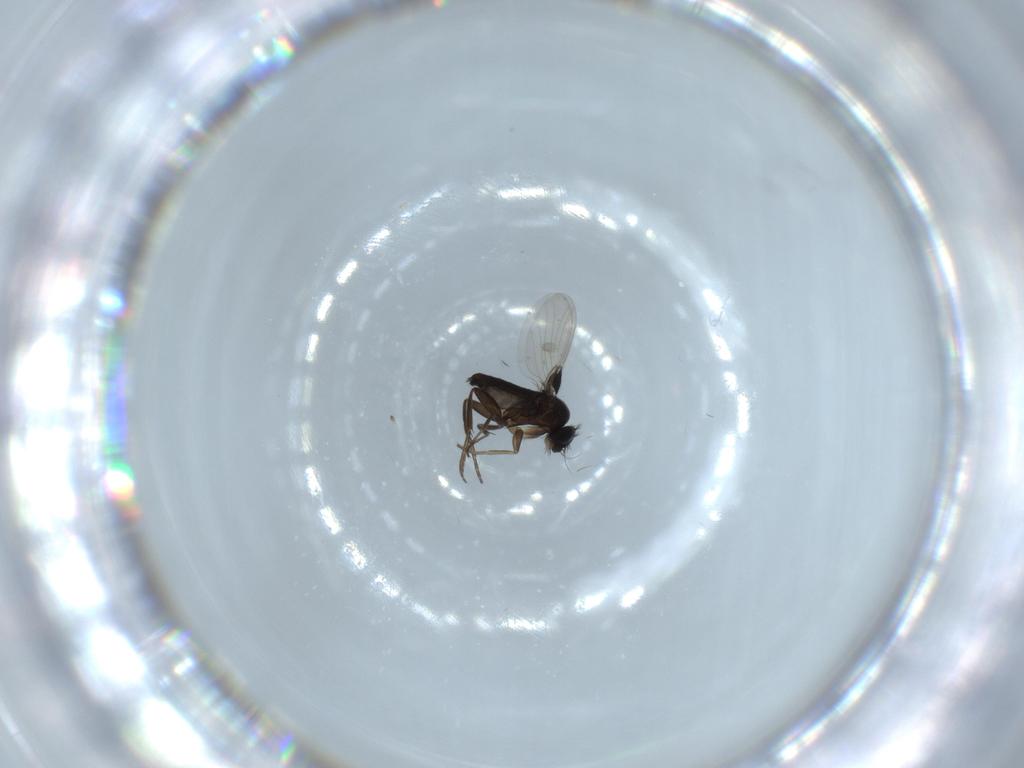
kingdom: Animalia
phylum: Arthropoda
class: Insecta
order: Diptera
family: Phoridae
